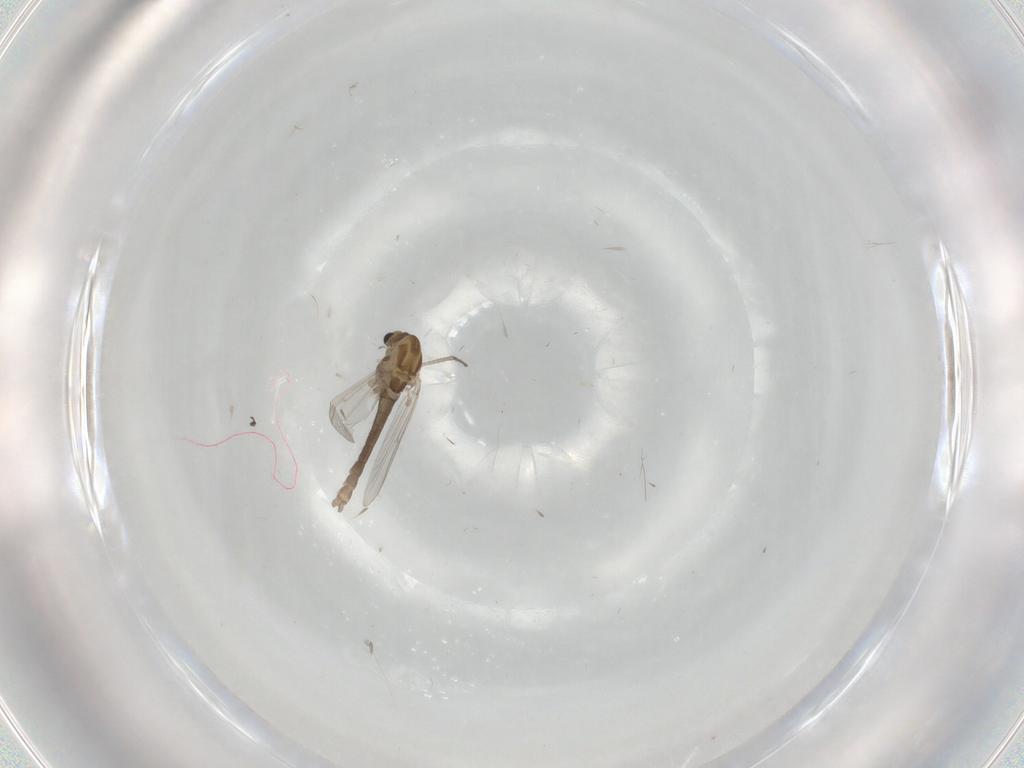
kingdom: Animalia
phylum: Arthropoda
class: Insecta
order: Diptera
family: Chironomidae
